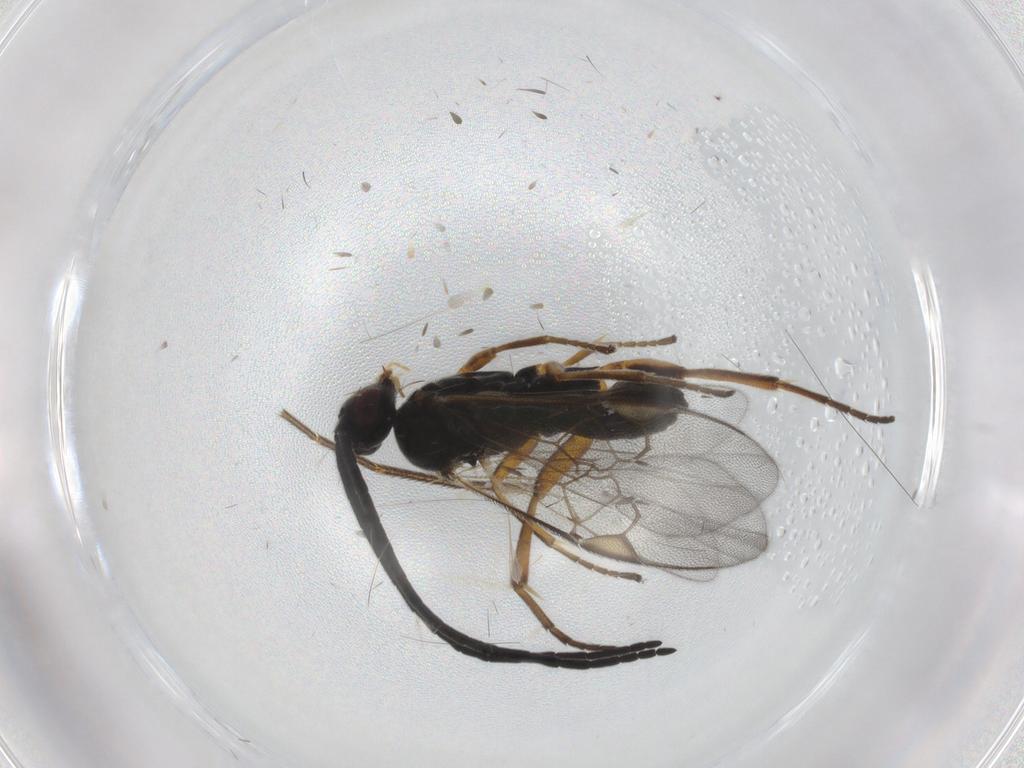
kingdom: Animalia
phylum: Arthropoda
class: Insecta
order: Hymenoptera
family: Braconidae
